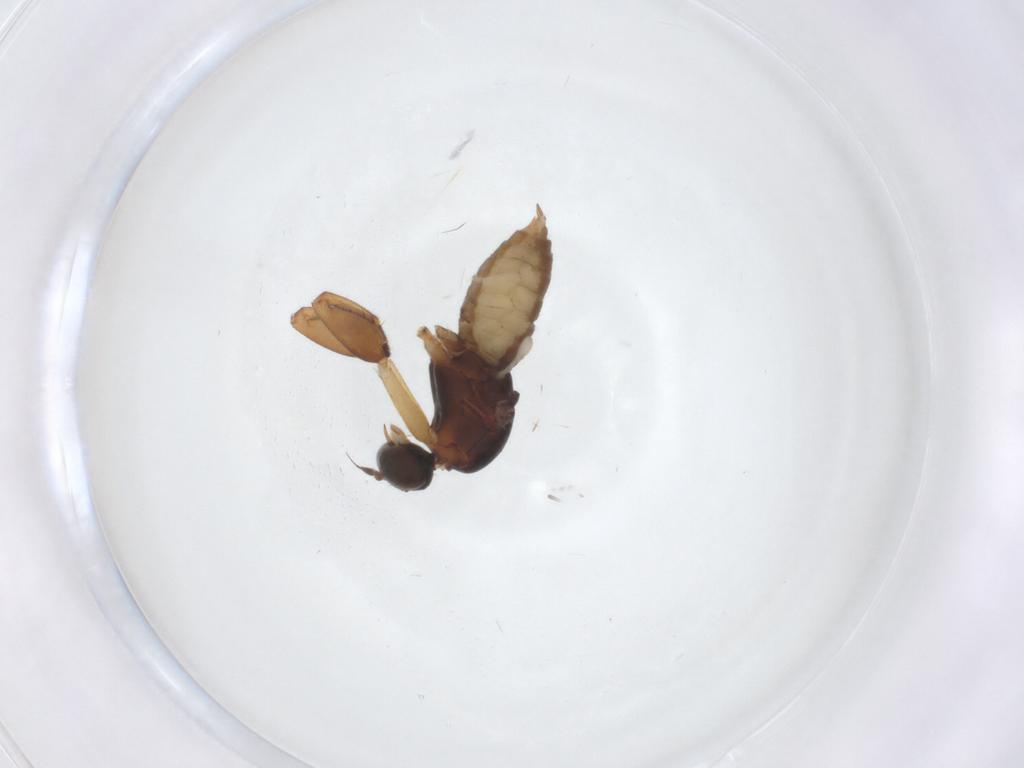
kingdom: Animalia
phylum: Arthropoda
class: Insecta
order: Diptera
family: Empididae
